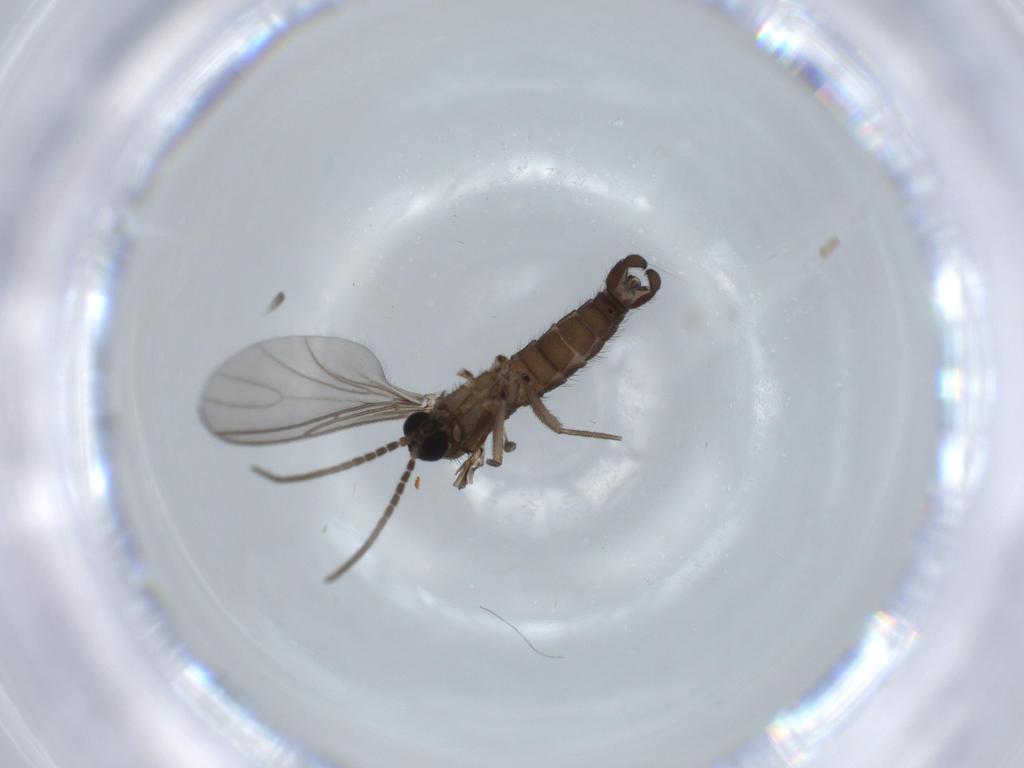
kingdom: Animalia
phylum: Arthropoda
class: Insecta
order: Diptera
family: Sciaridae
